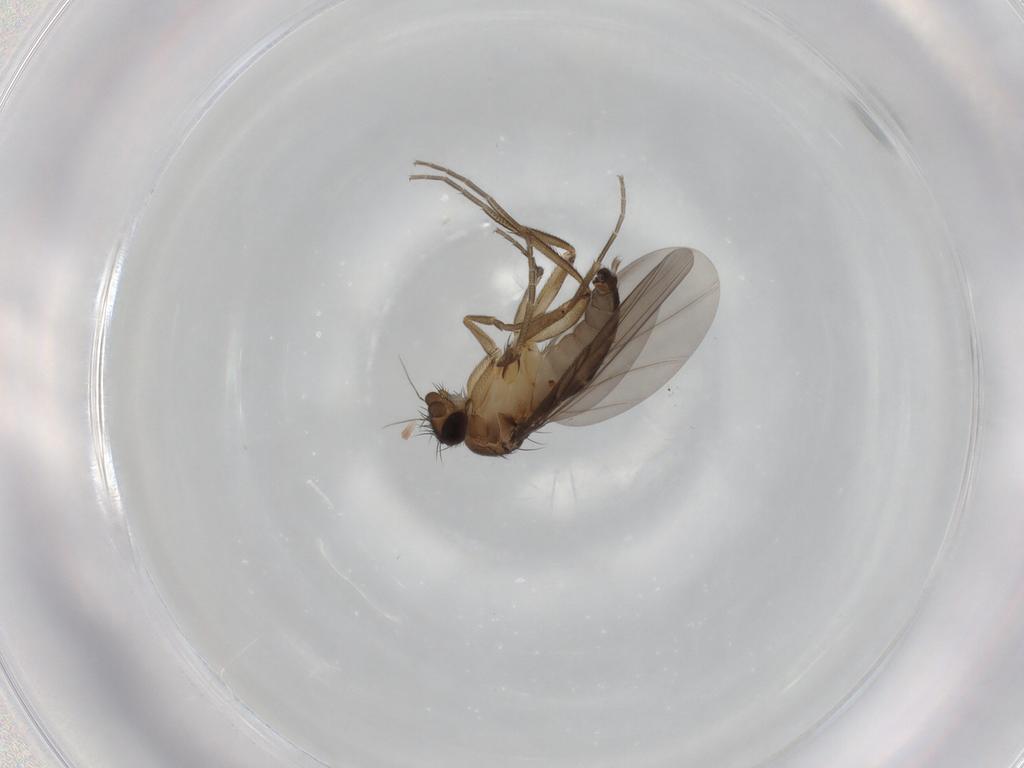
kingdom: Animalia
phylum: Arthropoda
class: Insecta
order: Diptera
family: Phoridae
